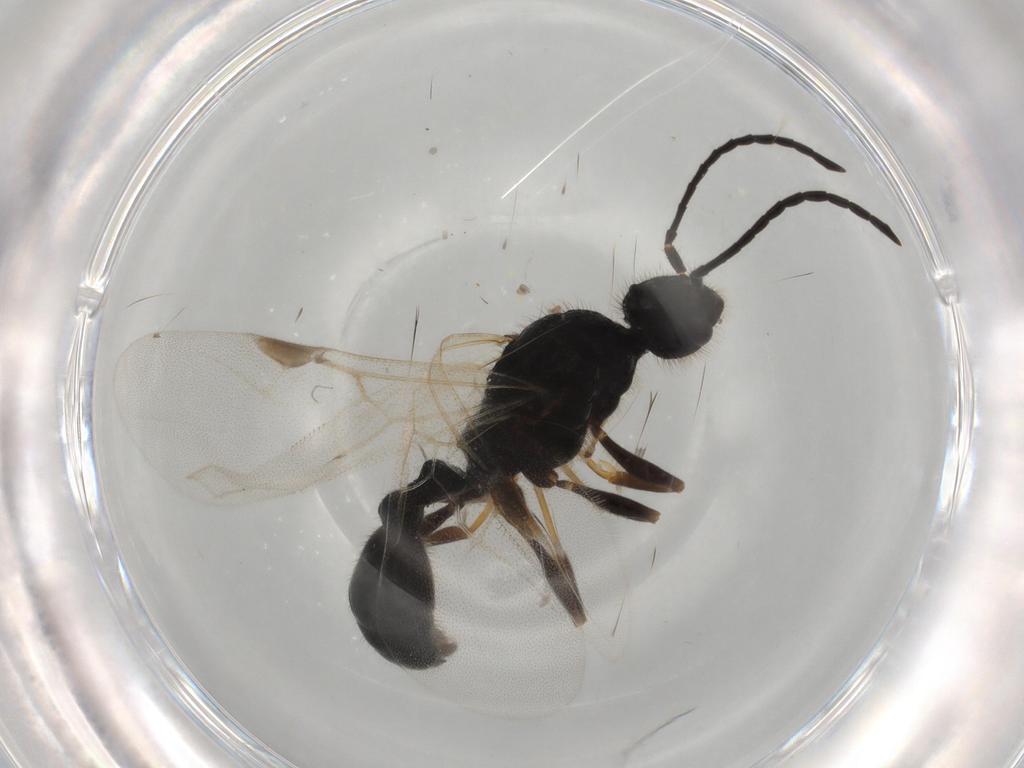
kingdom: Animalia
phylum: Arthropoda
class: Insecta
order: Hymenoptera
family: Formicidae
